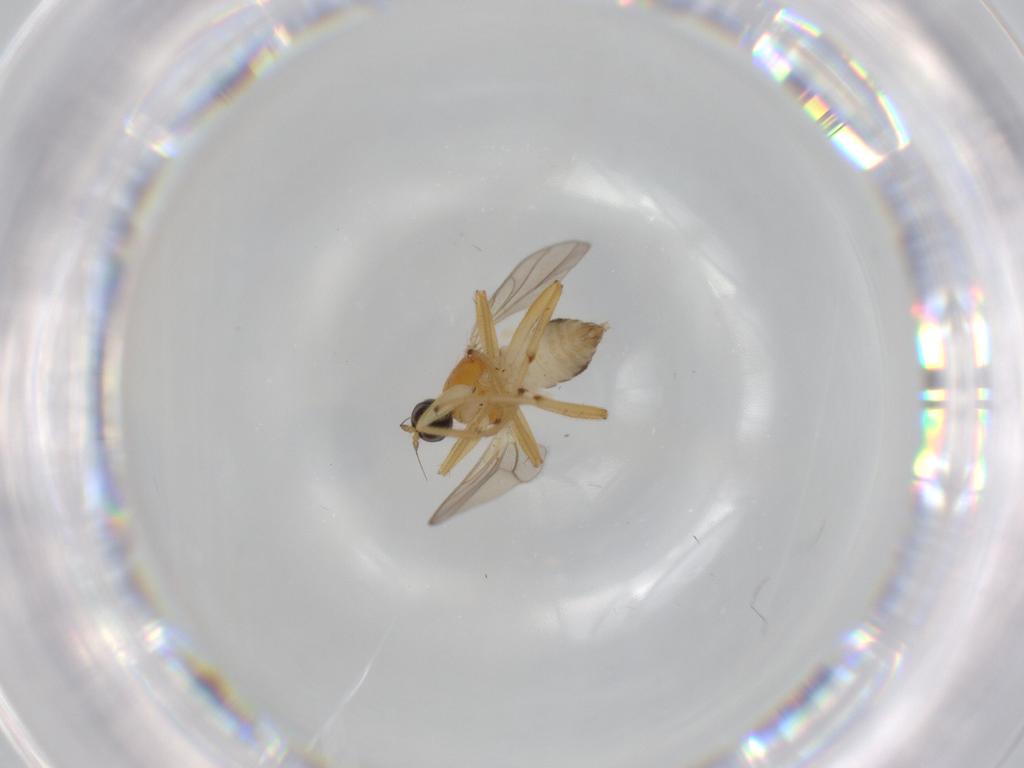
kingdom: Animalia
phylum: Arthropoda
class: Insecta
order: Diptera
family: Hybotidae
